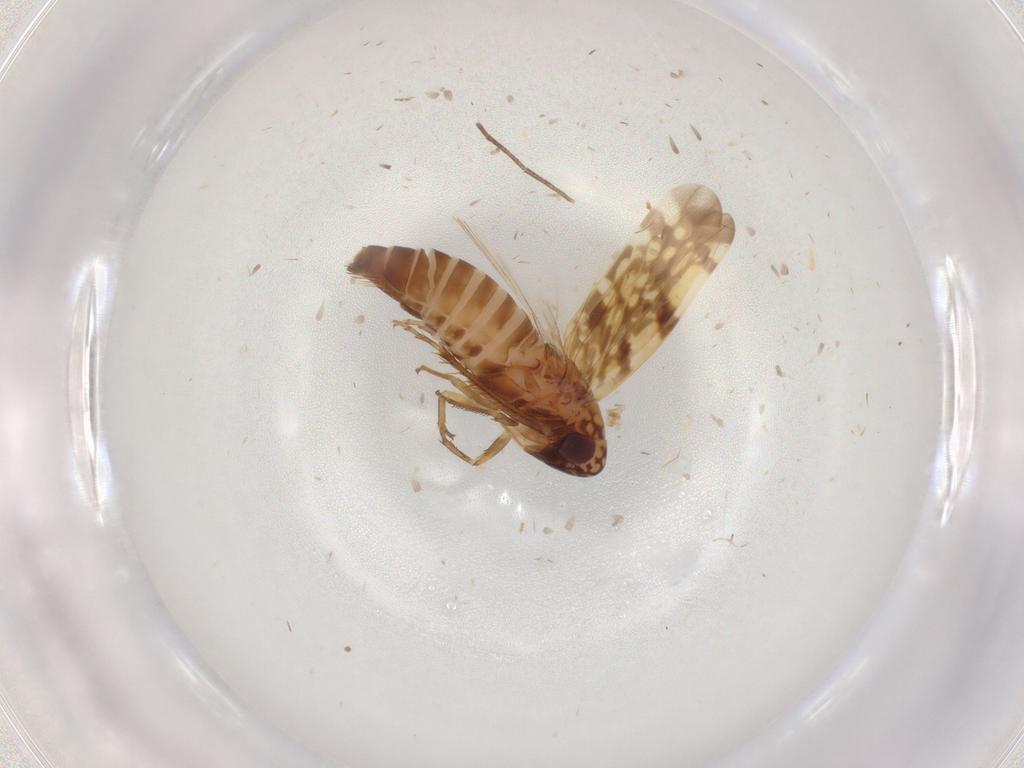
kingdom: Animalia
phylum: Arthropoda
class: Insecta
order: Hemiptera
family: Cicadellidae
